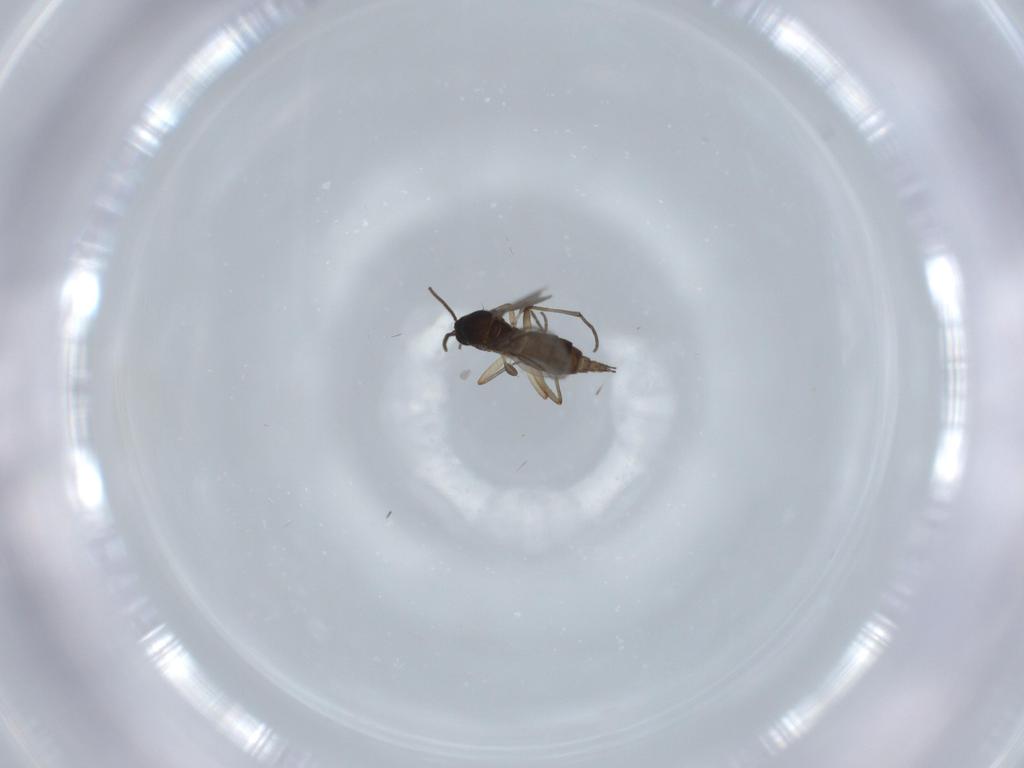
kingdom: Animalia
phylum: Arthropoda
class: Insecta
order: Diptera
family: Sciaridae
